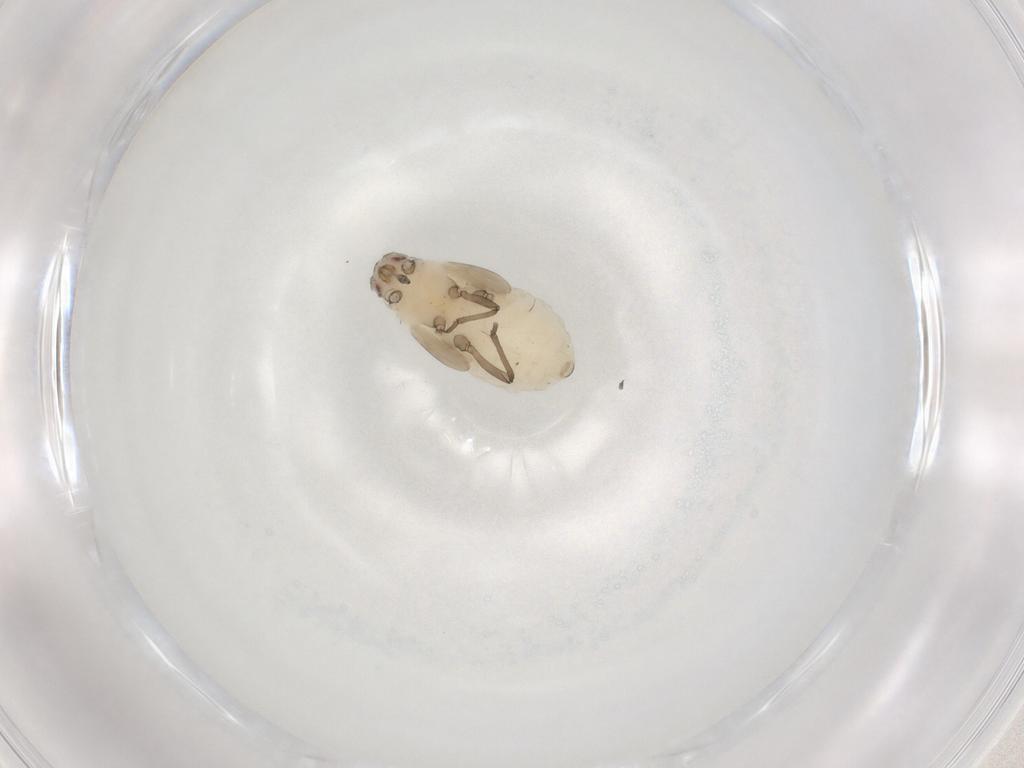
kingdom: Animalia
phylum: Arthropoda
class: Insecta
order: Hemiptera
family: Aphididae
